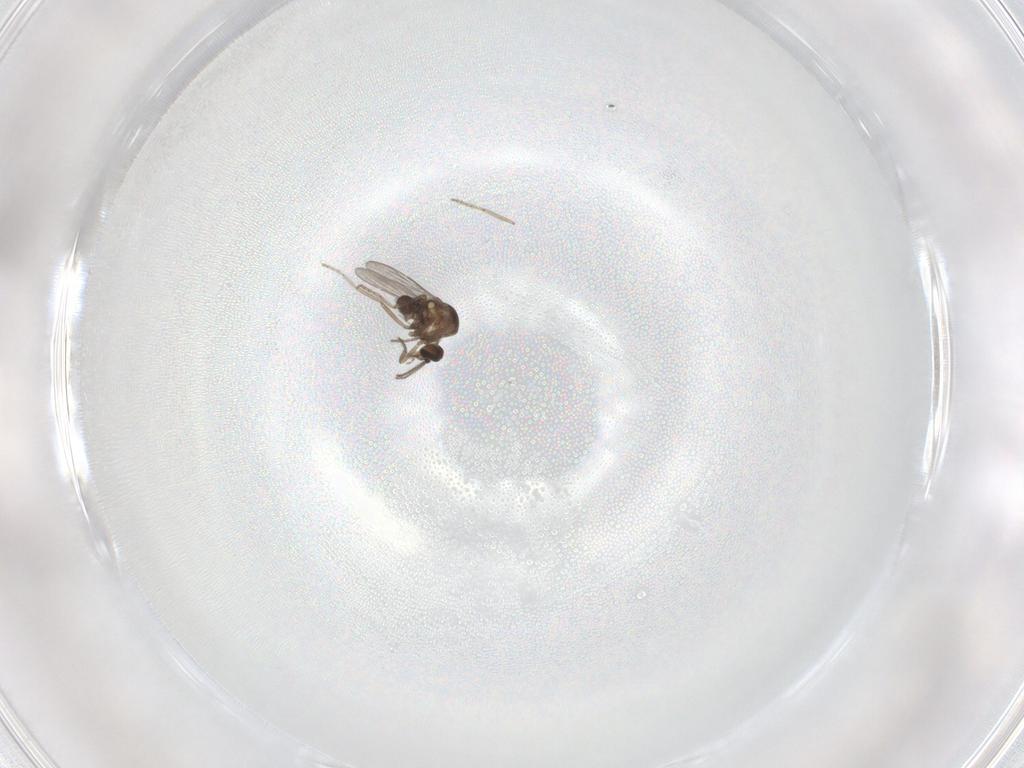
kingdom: Animalia
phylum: Arthropoda
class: Insecta
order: Diptera
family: Ceratopogonidae
